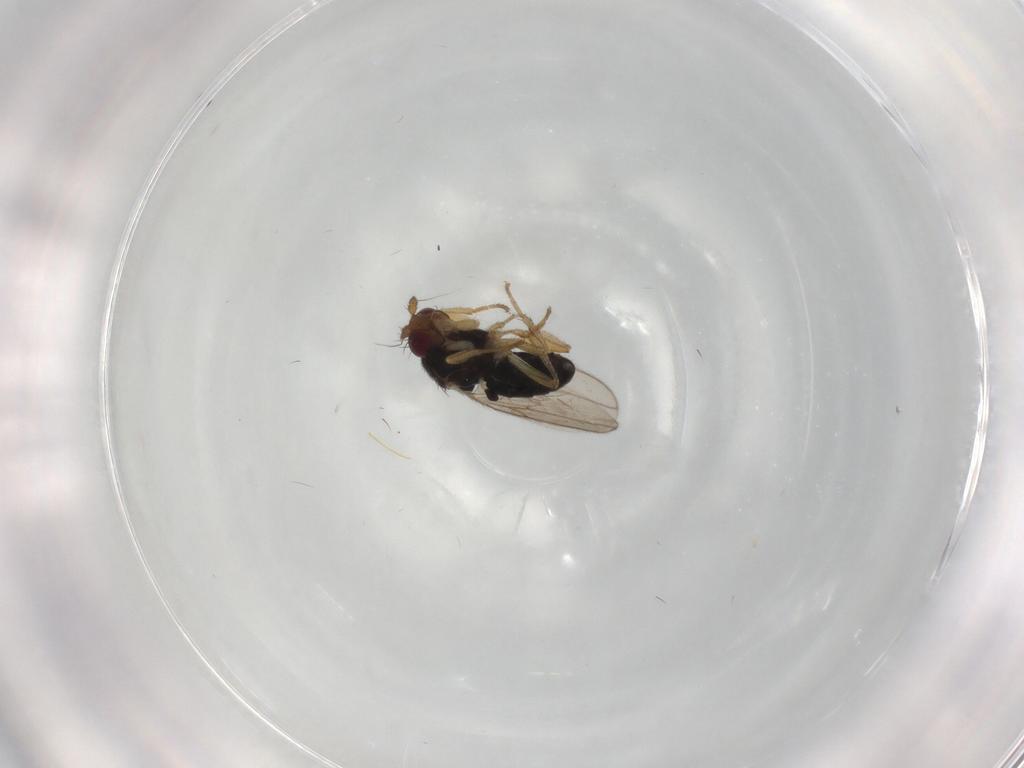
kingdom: Animalia
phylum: Arthropoda
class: Insecta
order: Diptera
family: Sphaeroceridae
